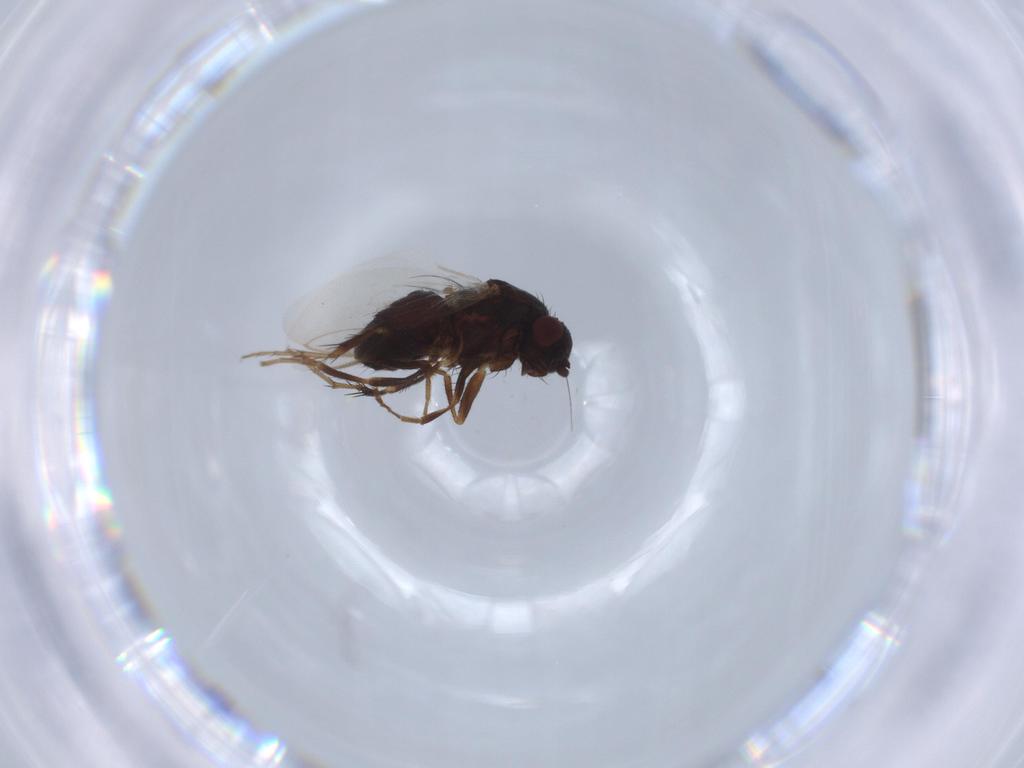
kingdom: Animalia
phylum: Arthropoda
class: Insecta
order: Diptera
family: Sphaeroceridae
